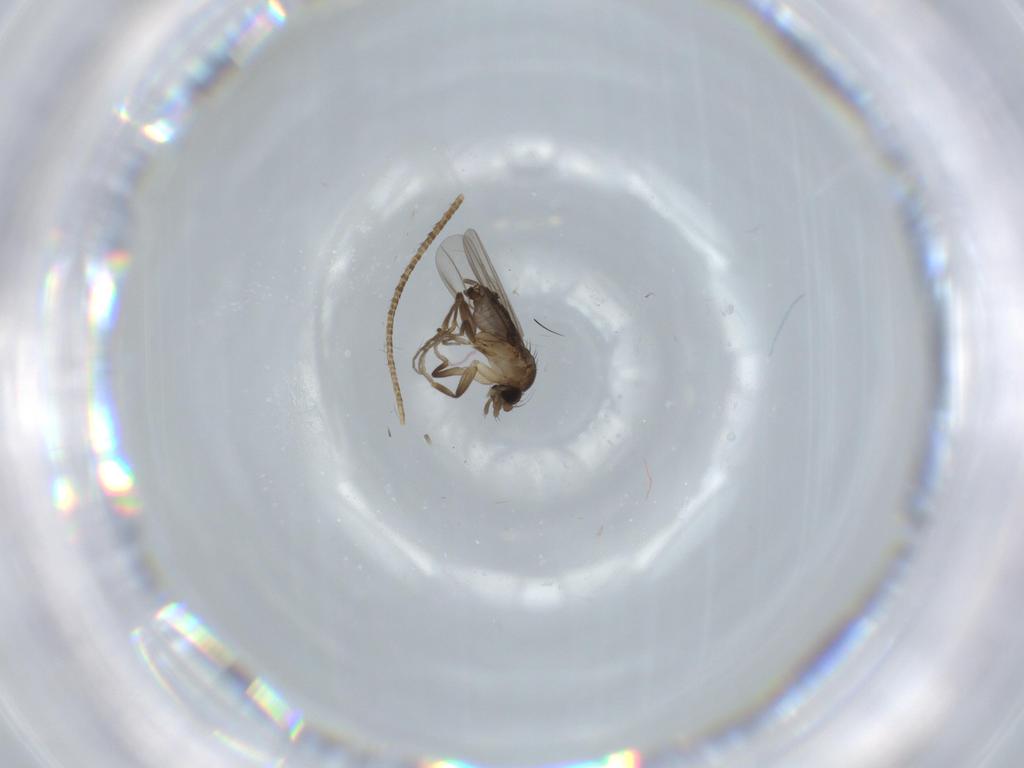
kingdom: Animalia
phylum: Arthropoda
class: Insecta
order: Diptera
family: Phoridae
